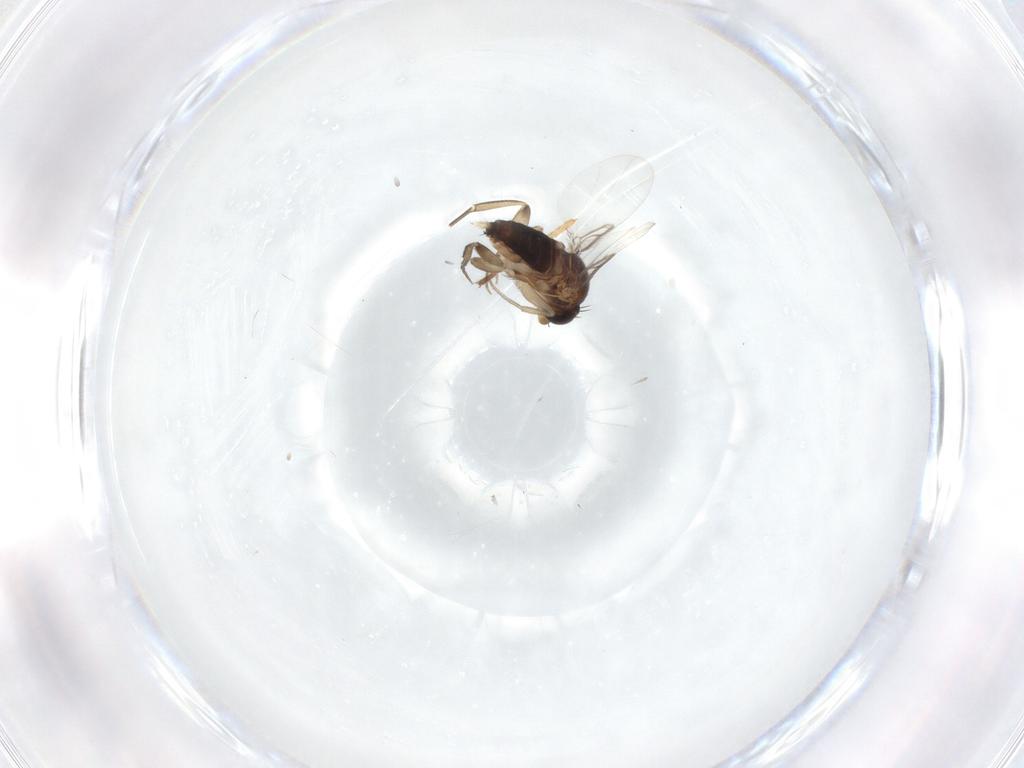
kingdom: Animalia
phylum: Arthropoda
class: Insecta
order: Diptera
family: Phoridae
